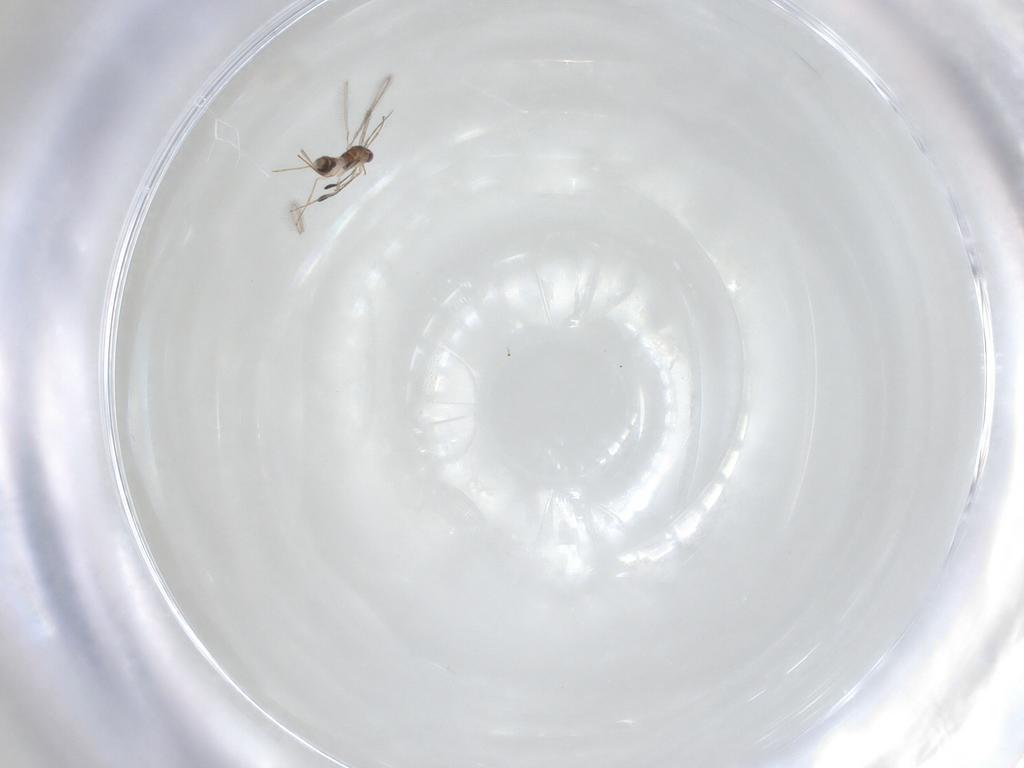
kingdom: Animalia
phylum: Arthropoda
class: Insecta
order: Hymenoptera
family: Mymaridae
